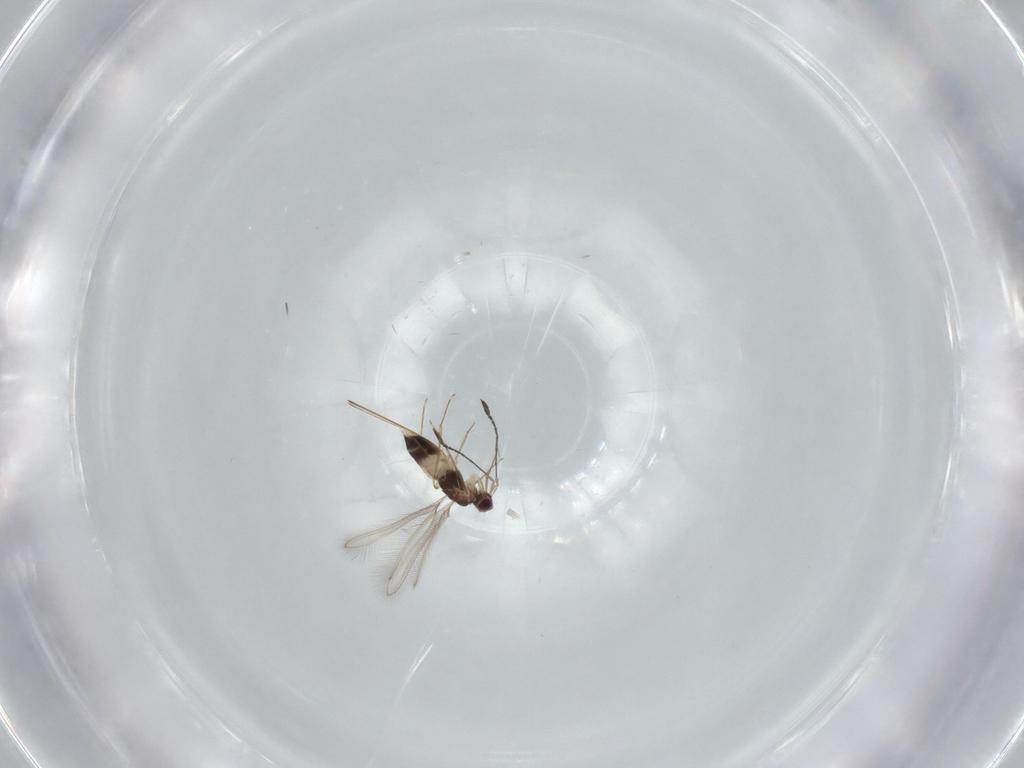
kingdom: Animalia
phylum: Arthropoda
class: Insecta
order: Hymenoptera
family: Mymaridae
